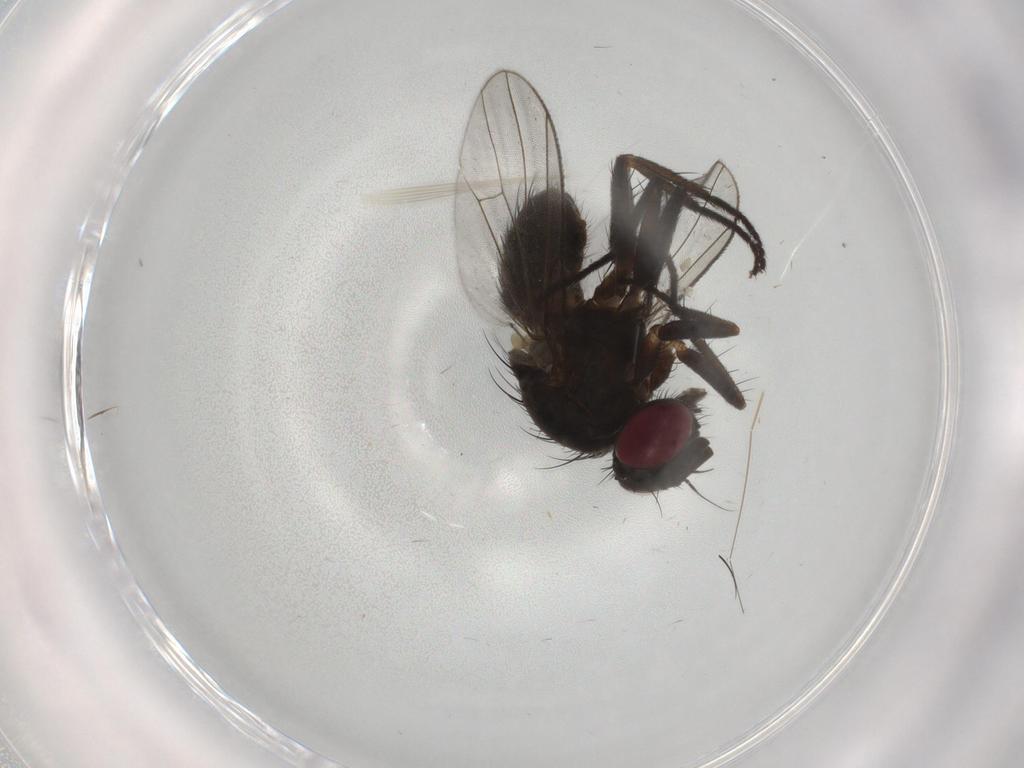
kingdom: Animalia
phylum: Arthropoda
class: Insecta
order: Diptera
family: Muscidae
